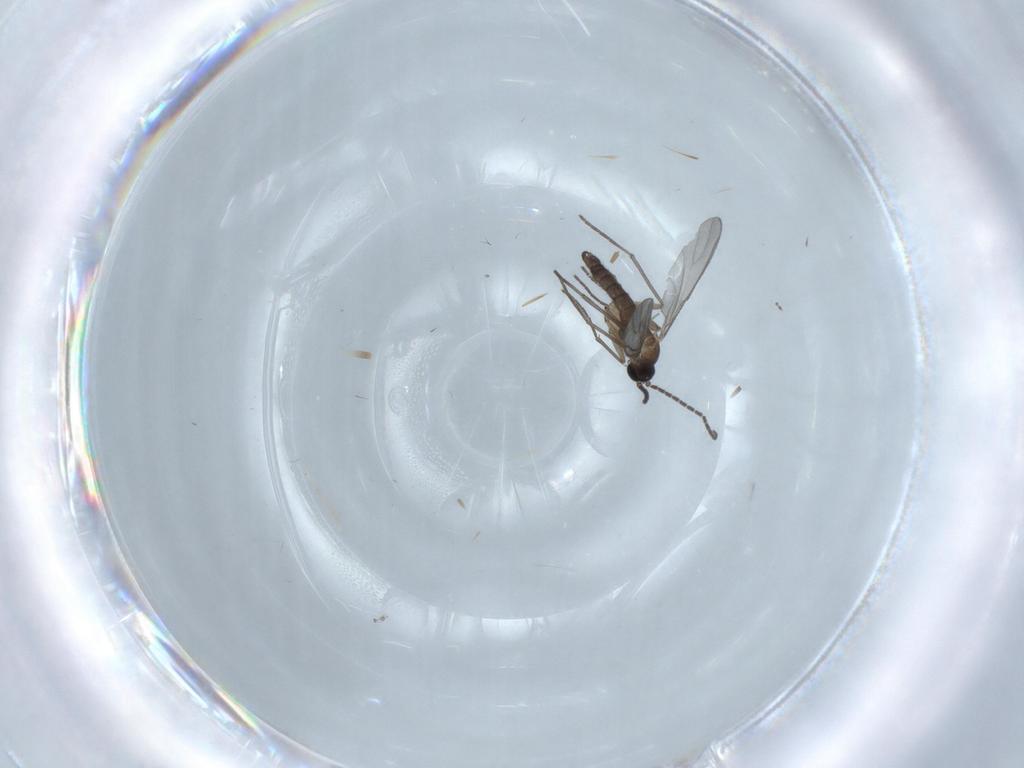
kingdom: Animalia
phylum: Arthropoda
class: Insecta
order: Diptera
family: Sciaridae
